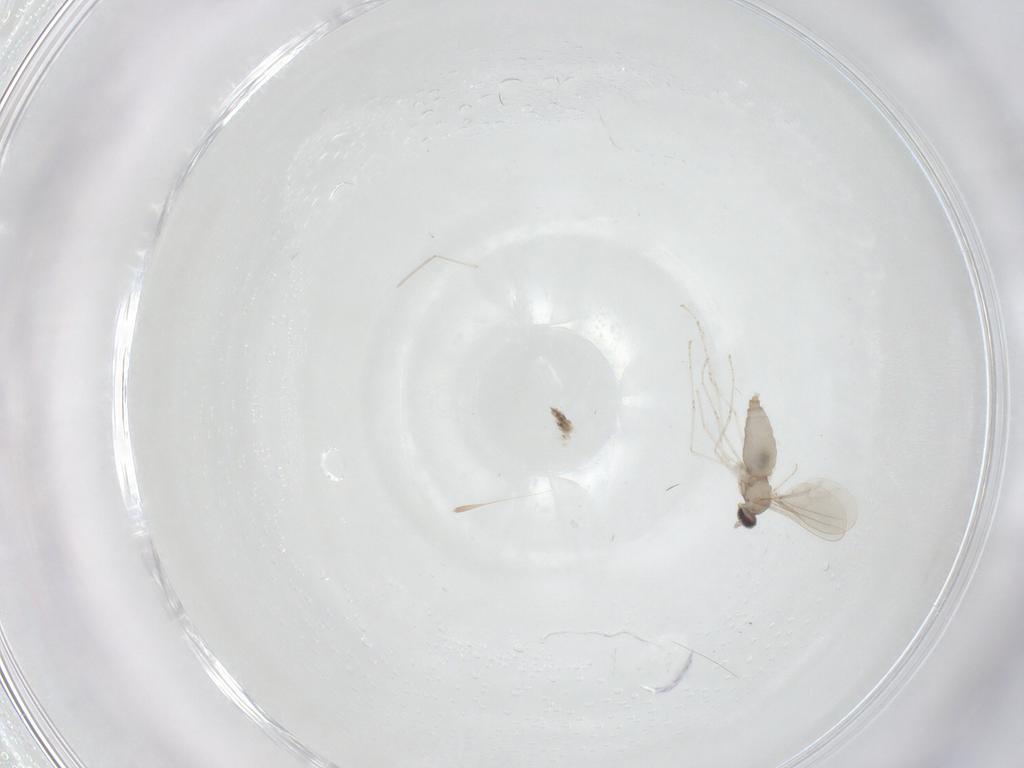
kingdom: Animalia
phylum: Arthropoda
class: Insecta
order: Diptera
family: Cecidomyiidae
